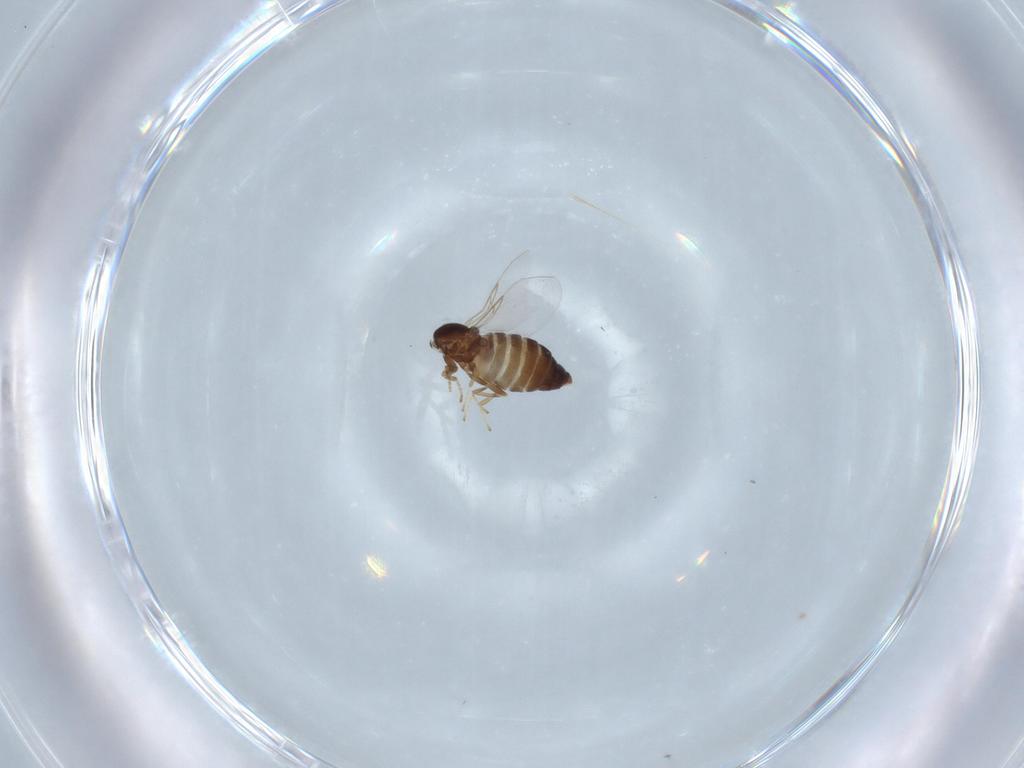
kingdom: Animalia
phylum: Arthropoda
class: Insecta
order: Diptera
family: Scatopsidae
